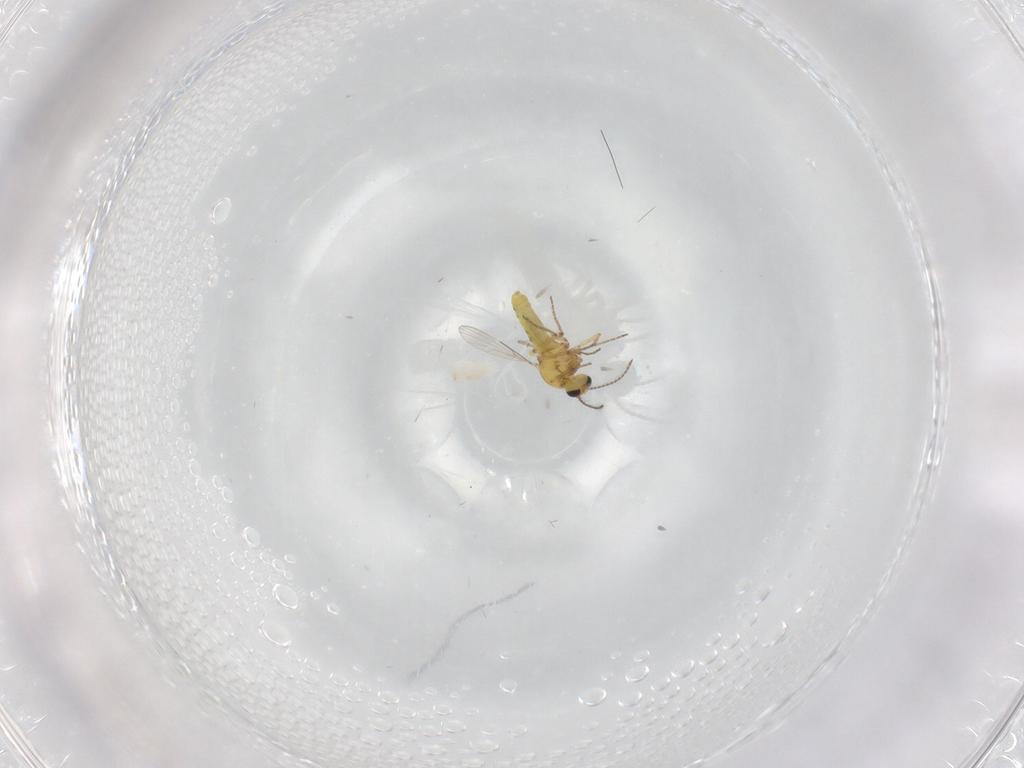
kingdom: Animalia
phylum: Arthropoda
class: Insecta
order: Diptera
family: Ceratopogonidae
